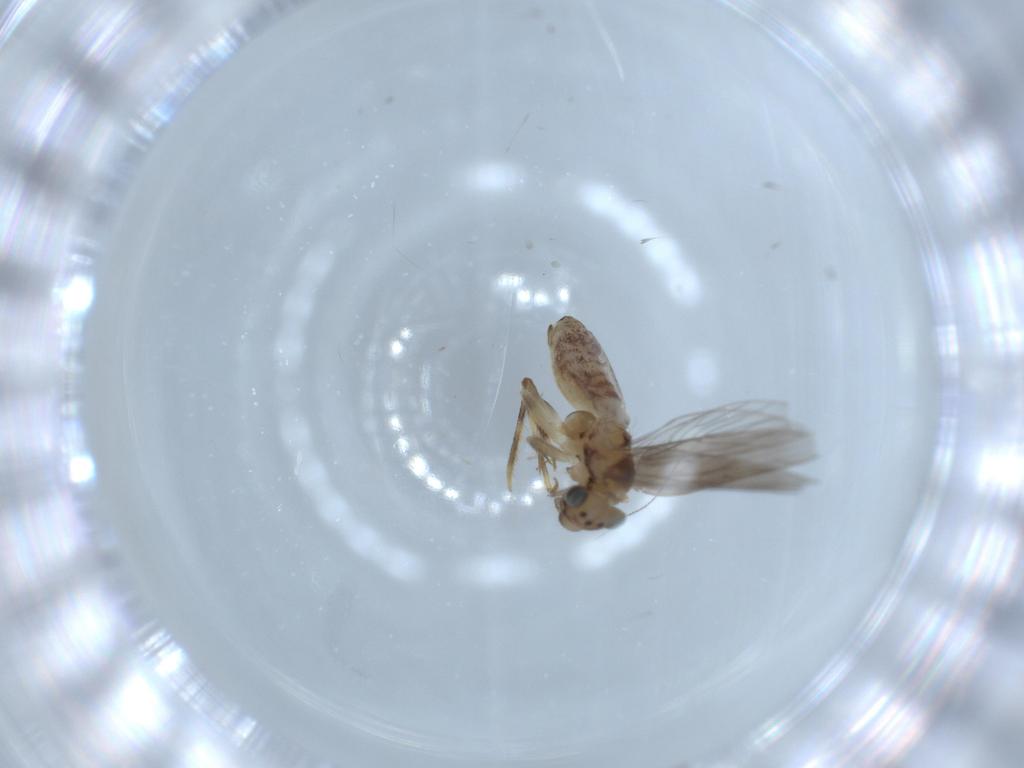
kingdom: Animalia
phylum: Arthropoda
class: Insecta
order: Psocodea
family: Lepidopsocidae
